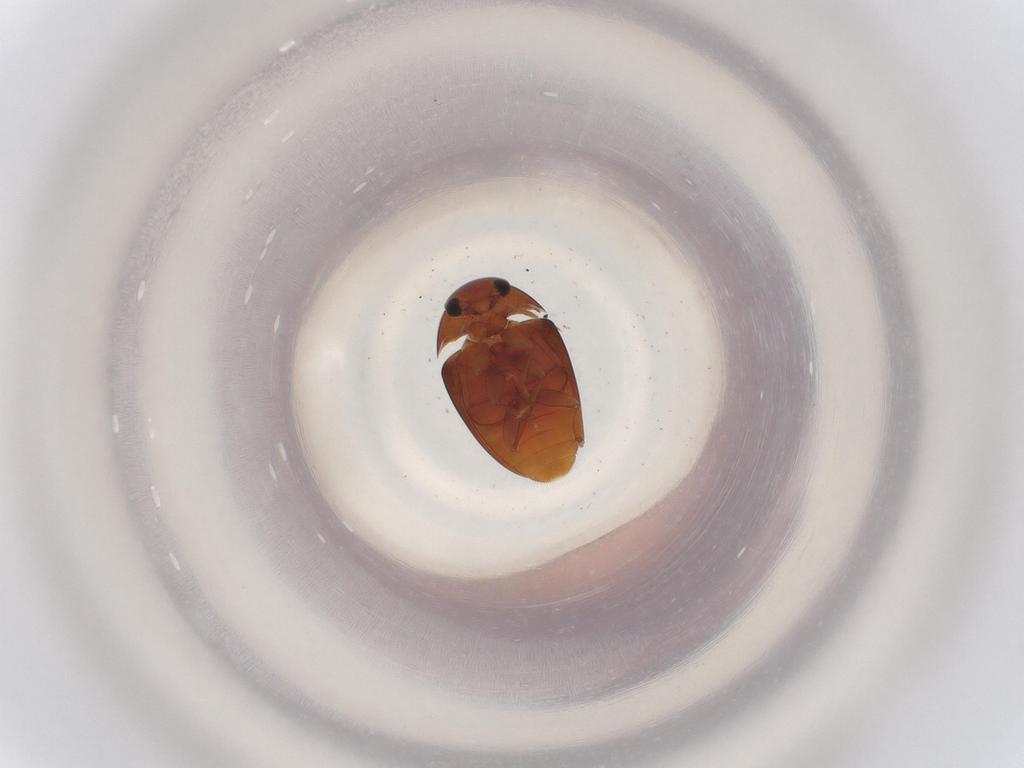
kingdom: Animalia
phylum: Arthropoda
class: Insecta
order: Coleoptera
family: Phalacridae
